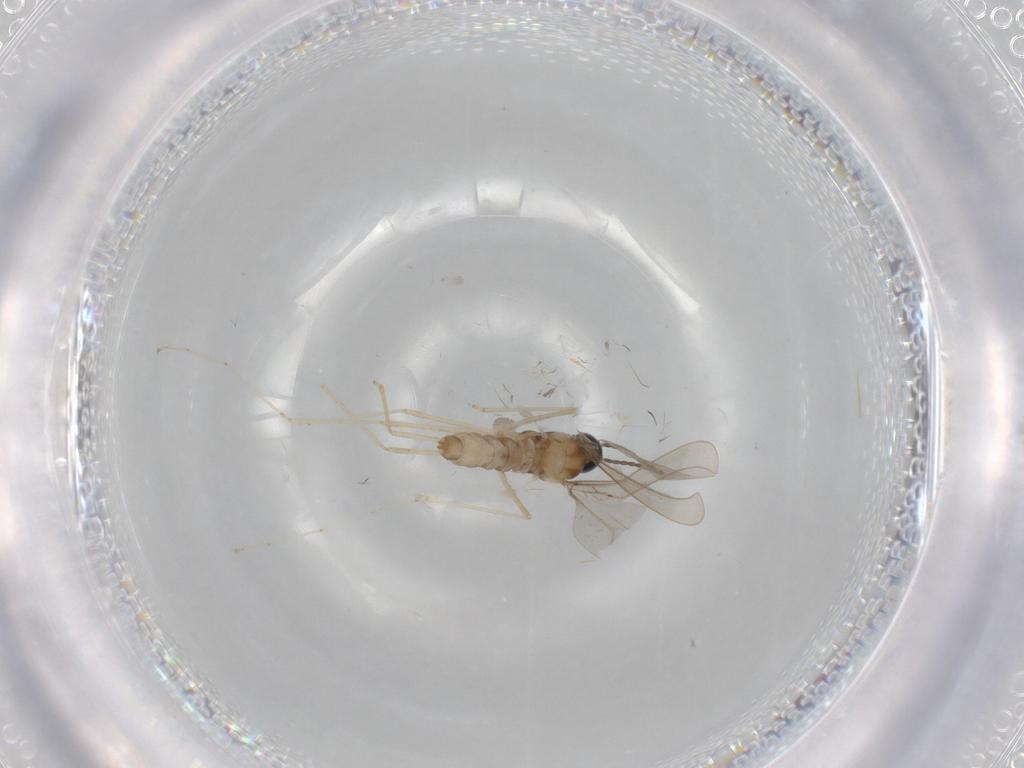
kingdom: Animalia
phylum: Arthropoda
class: Insecta
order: Diptera
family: Cecidomyiidae
